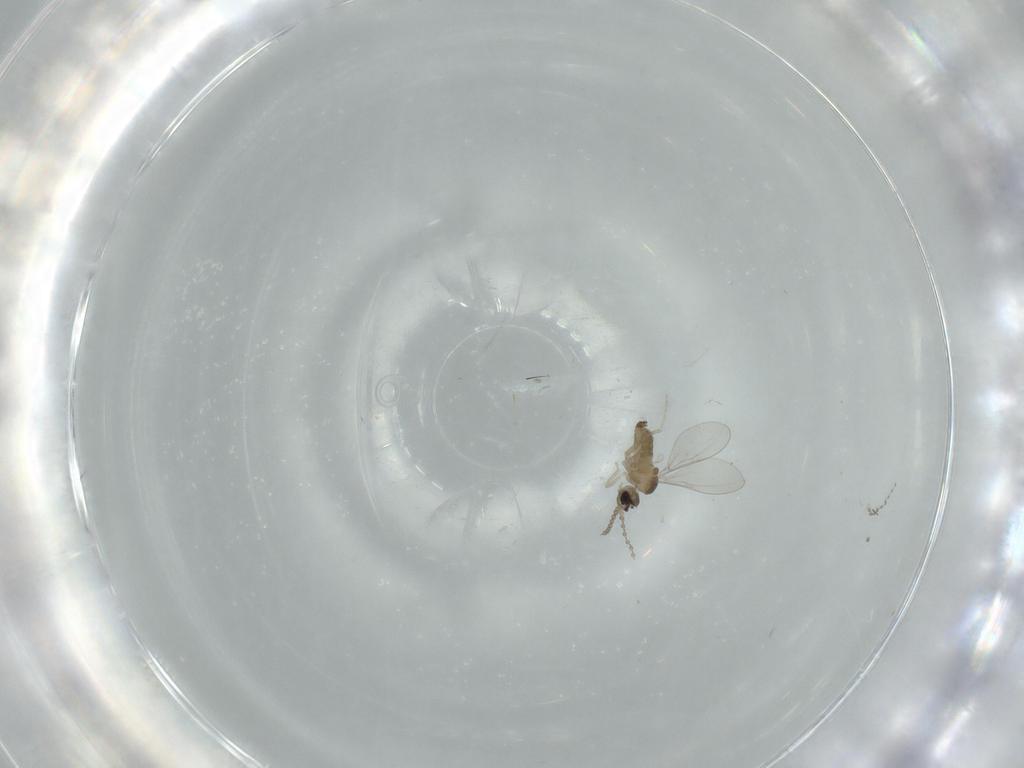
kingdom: Animalia
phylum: Arthropoda
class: Insecta
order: Diptera
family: Cecidomyiidae
